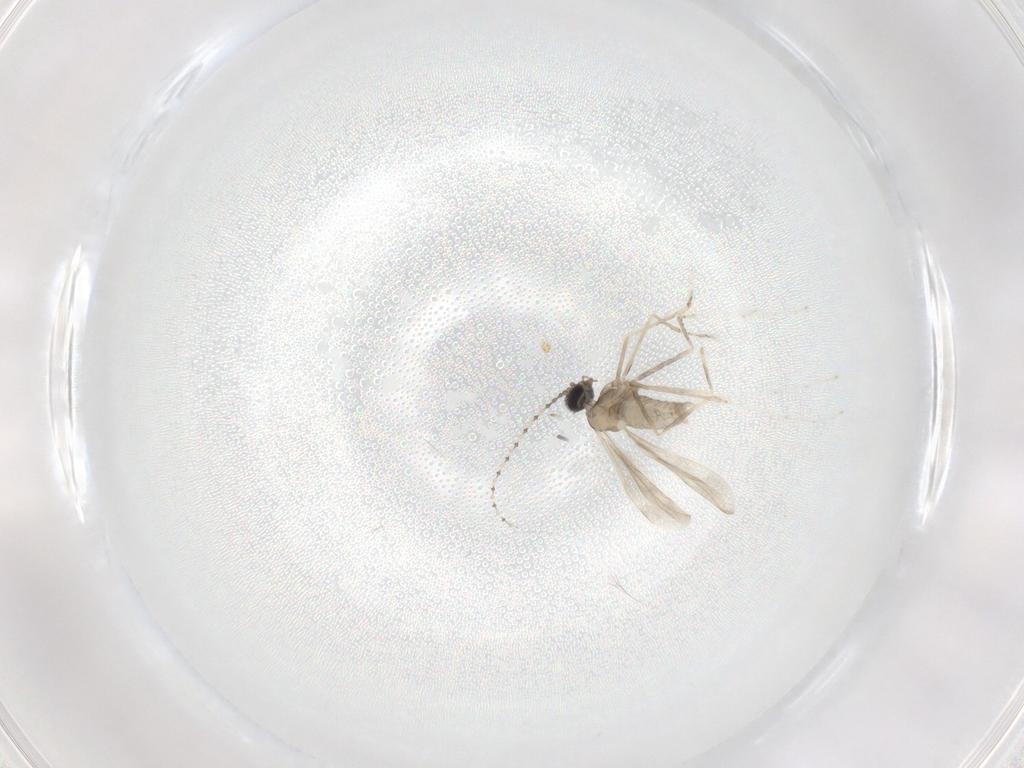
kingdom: Animalia
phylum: Arthropoda
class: Insecta
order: Diptera
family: Cecidomyiidae
